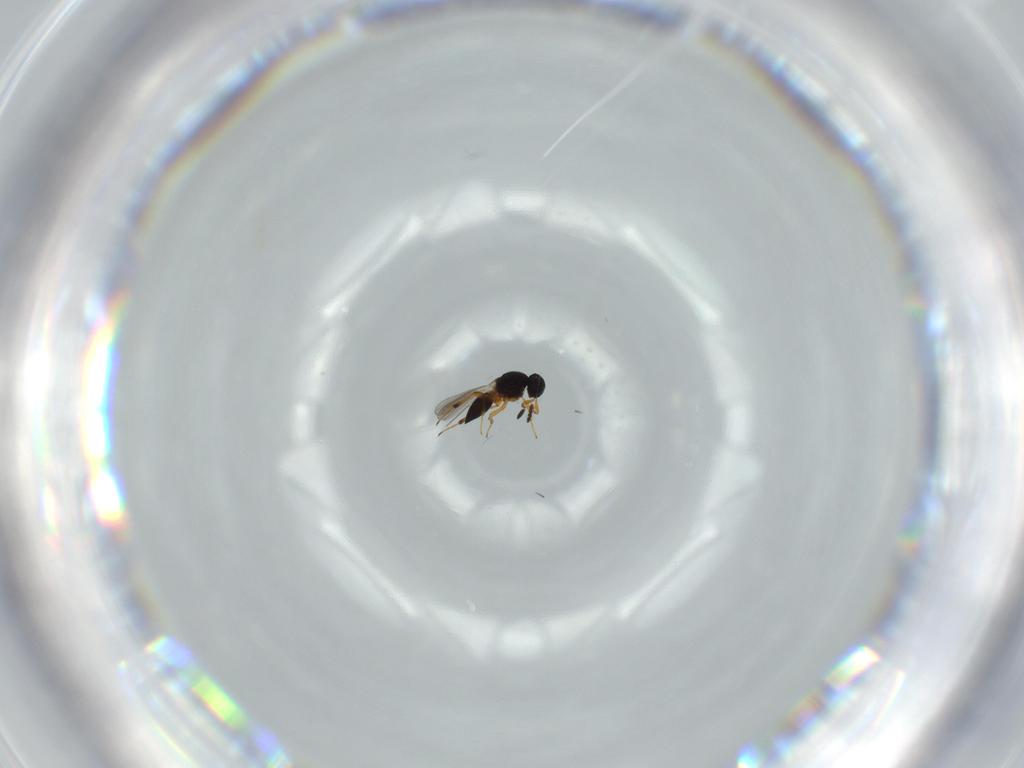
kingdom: Animalia
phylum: Arthropoda
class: Insecta
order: Hymenoptera
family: Platygastridae
